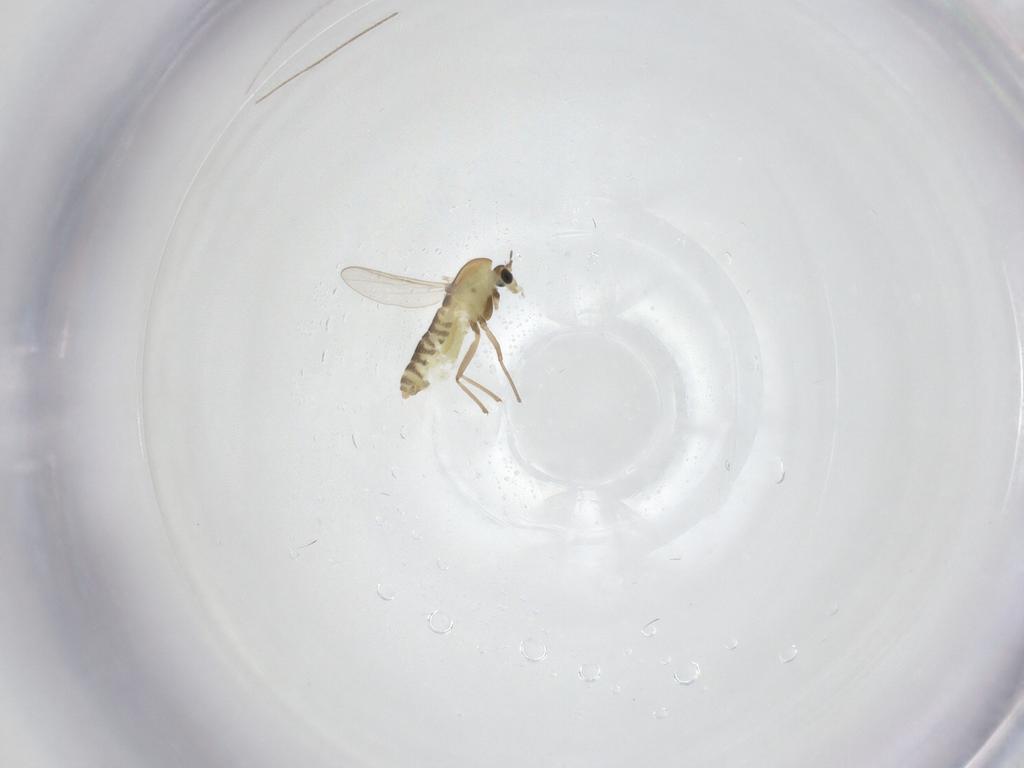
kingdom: Animalia
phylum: Arthropoda
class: Insecta
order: Diptera
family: Chironomidae
